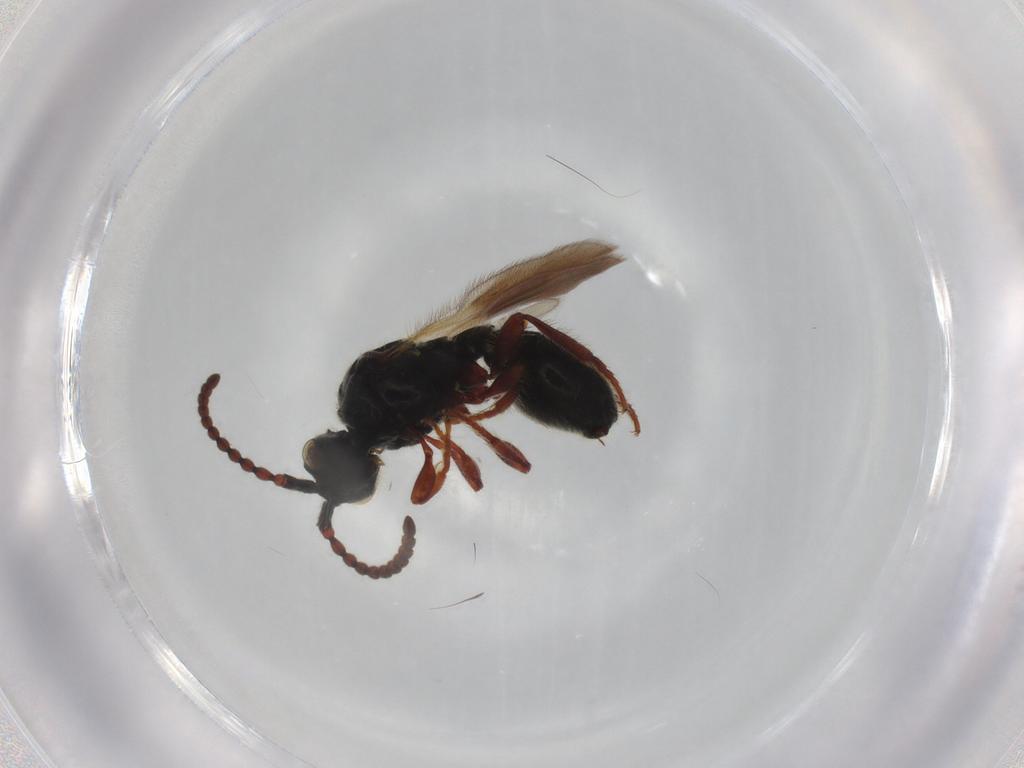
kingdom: Animalia
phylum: Arthropoda
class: Insecta
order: Hymenoptera
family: Diapriidae
